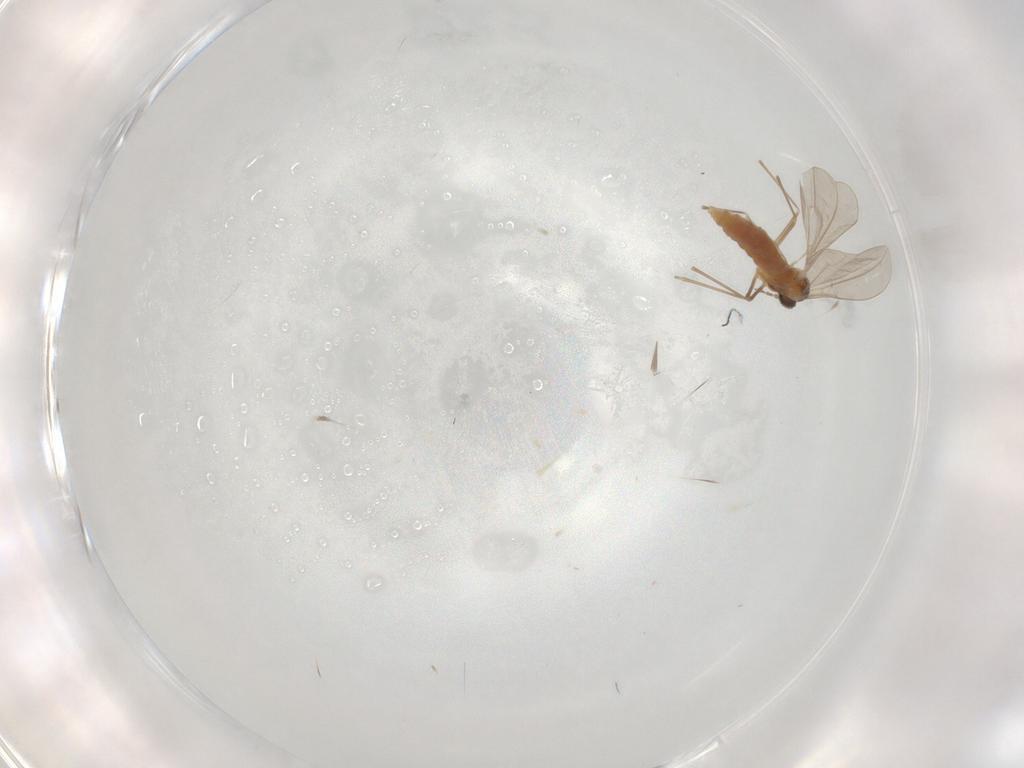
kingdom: Animalia
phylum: Arthropoda
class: Insecta
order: Diptera
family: Cecidomyiidae
